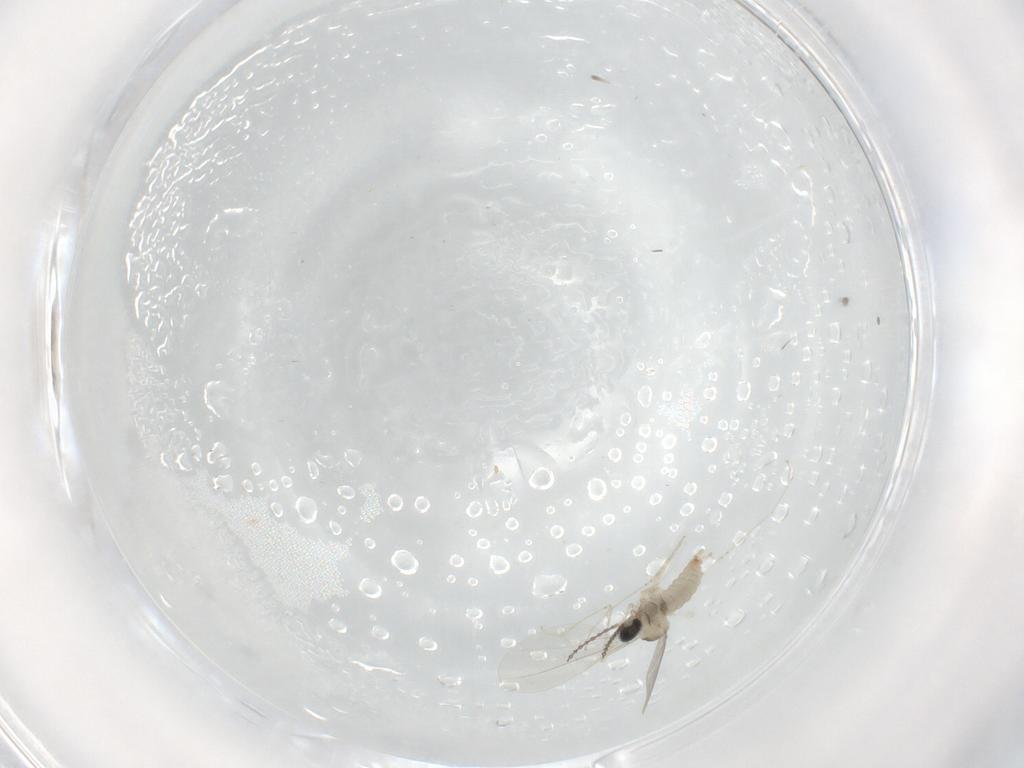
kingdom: Animalia
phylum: Arthropoda
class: Insecta
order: Diptera
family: Cecidomyiidae
